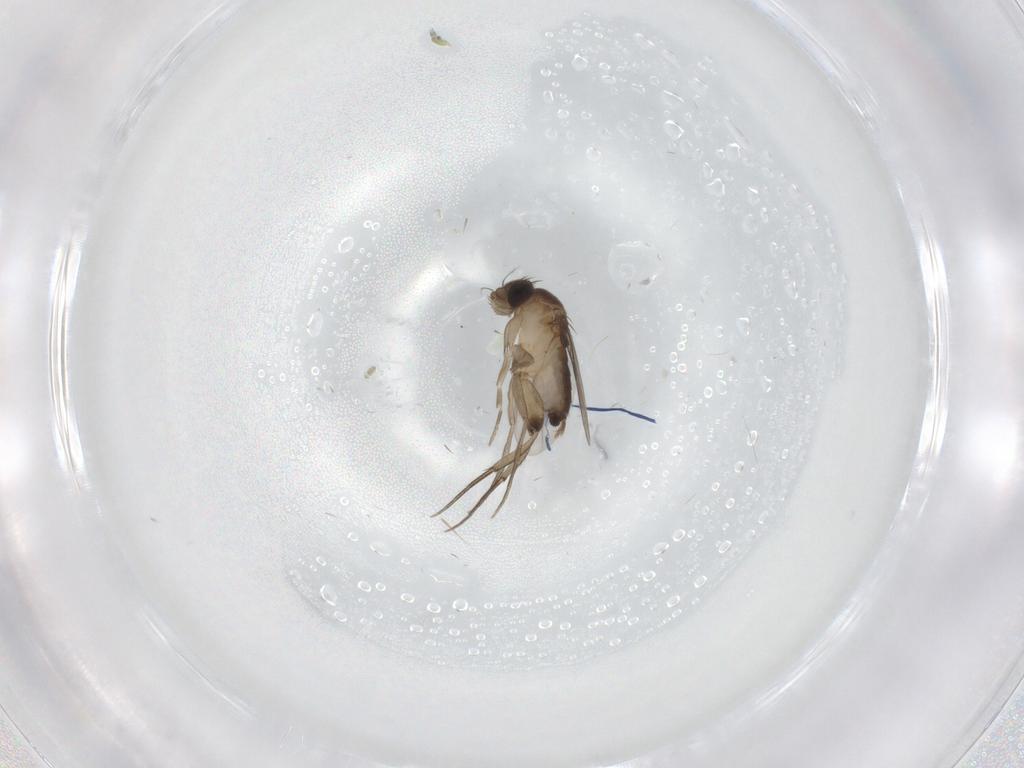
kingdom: Animalia
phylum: Arthropoda
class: Insecta
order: Diptera
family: Phoridae
